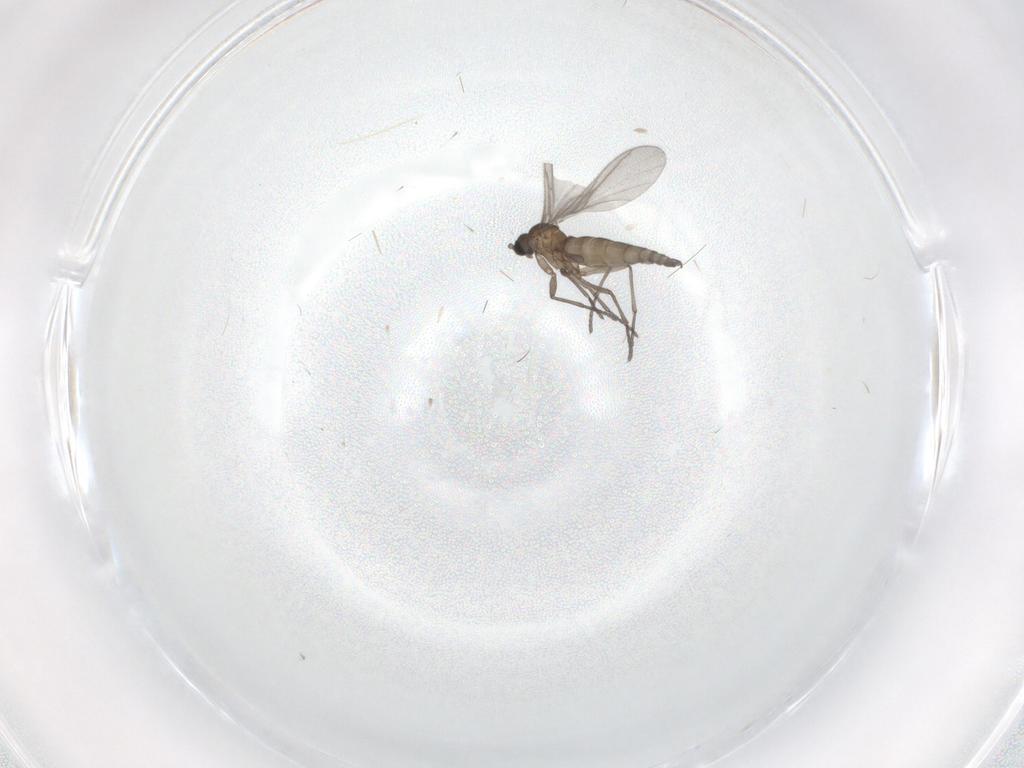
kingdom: Animalia
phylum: Arthropoda
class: Insecta
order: Diptera
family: Sciaridae
